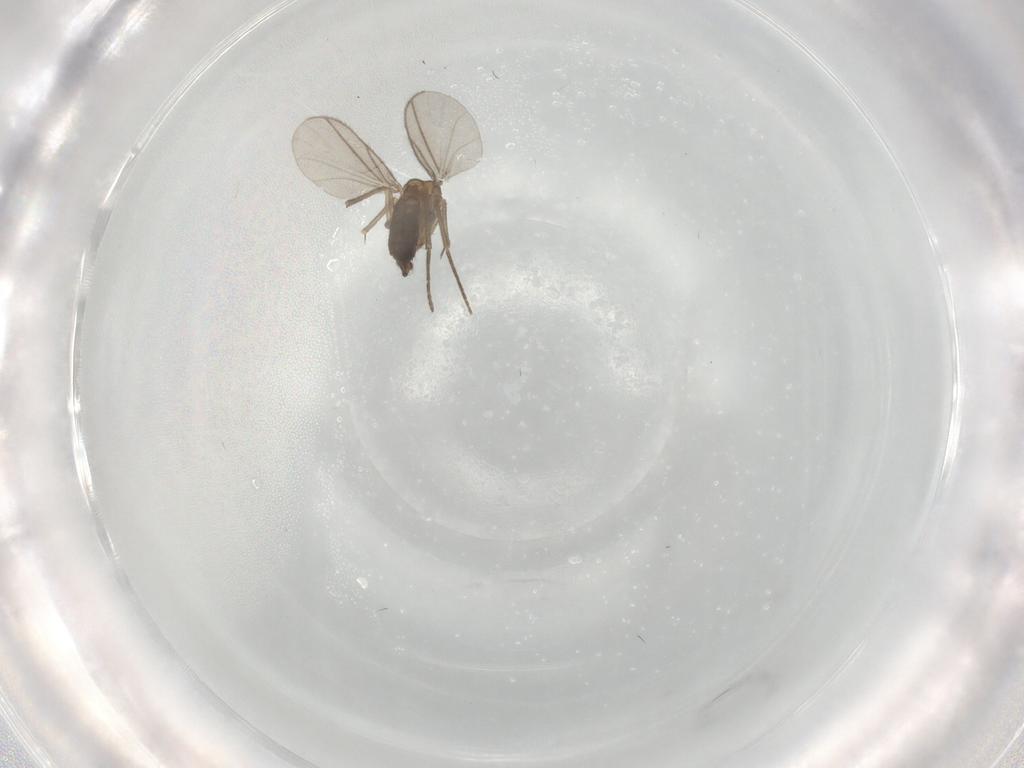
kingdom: Animalia
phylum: Arthropoda
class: Insecta
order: Diptera
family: Sciaridae
